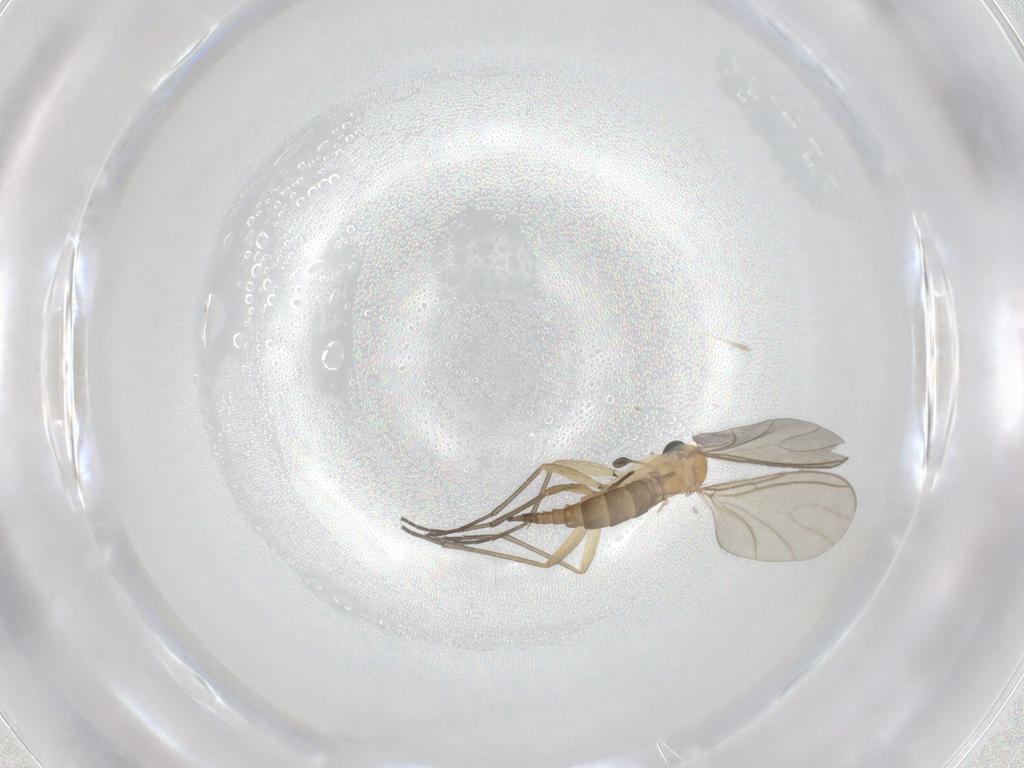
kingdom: Animalia
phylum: Arthropoda
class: Insecta
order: Diptera
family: Sciaridae
